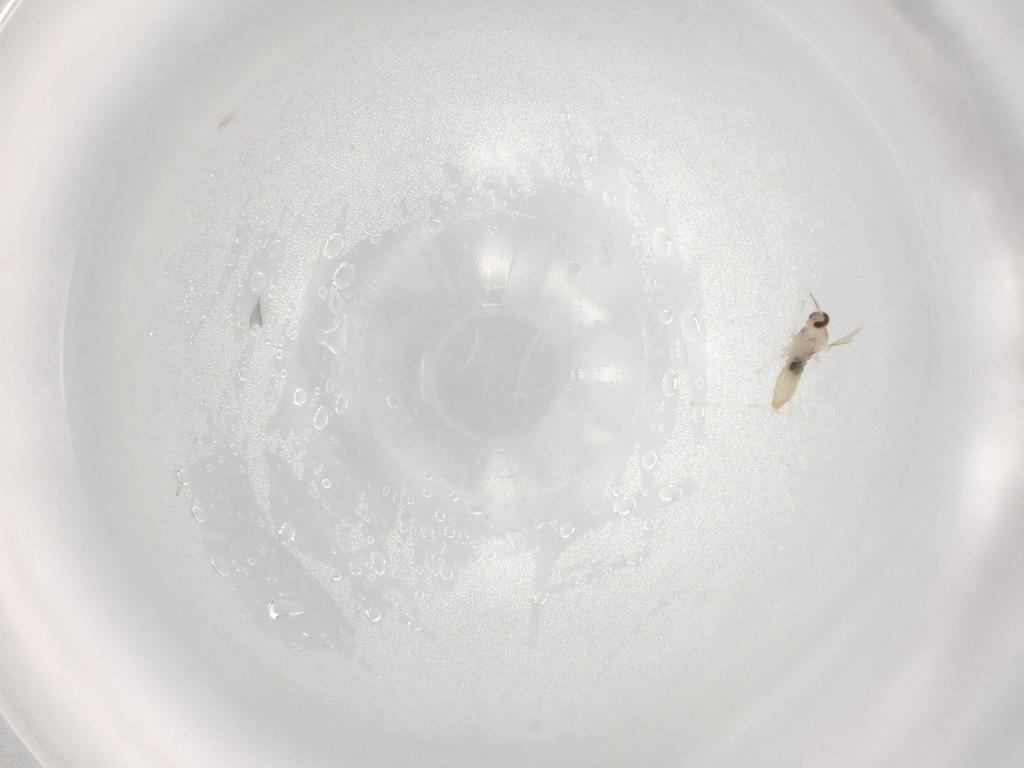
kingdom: Animalia
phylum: Arthropoda
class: Insecta
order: Diptera
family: Cecidomyiidae
